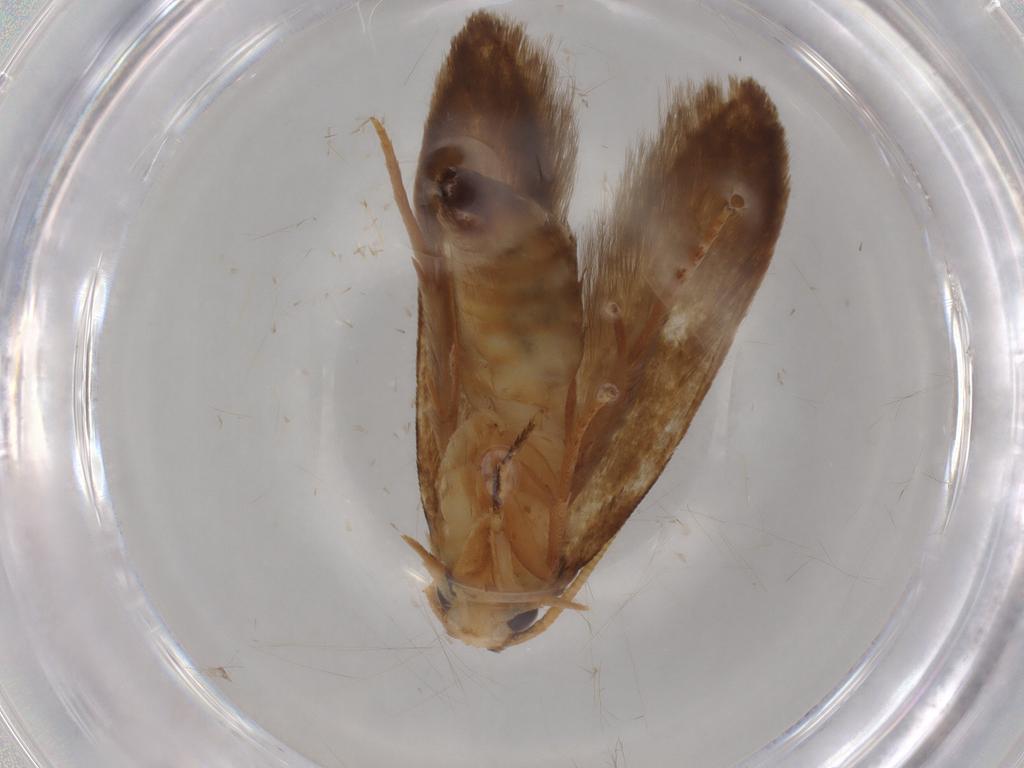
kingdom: Animalia
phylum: Arthropoda
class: Insecta
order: Lepidoptera
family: Tineidae
